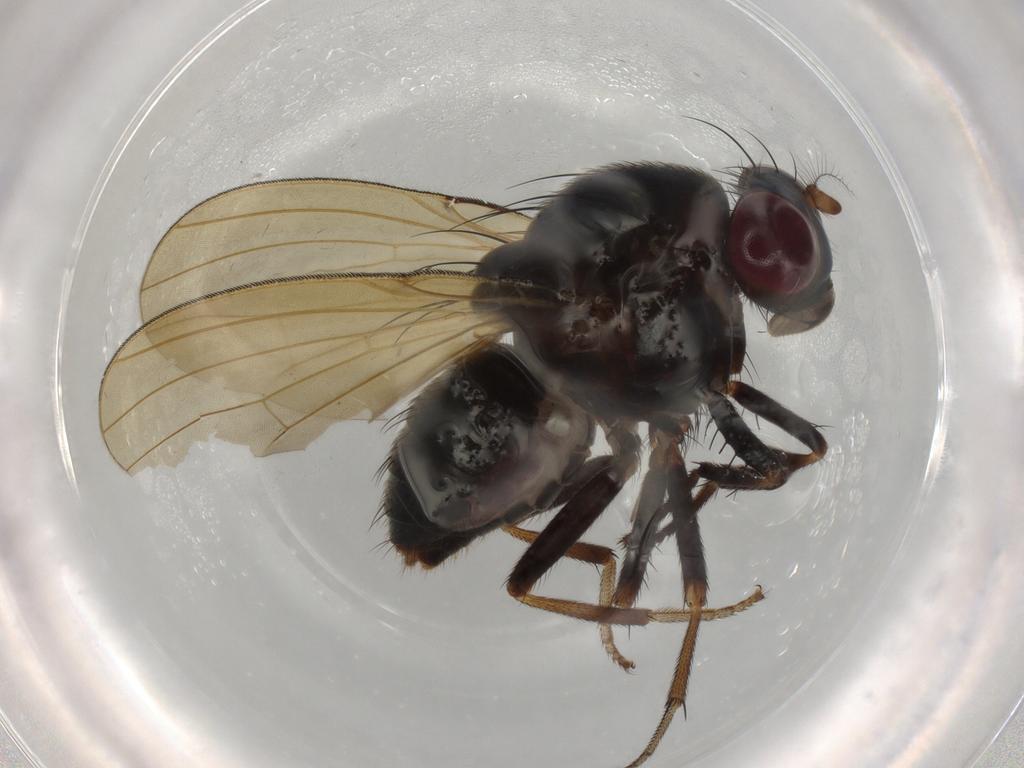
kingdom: Animalia
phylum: Arthropoda
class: Insecta
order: Diptera
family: Lauxaniidae
